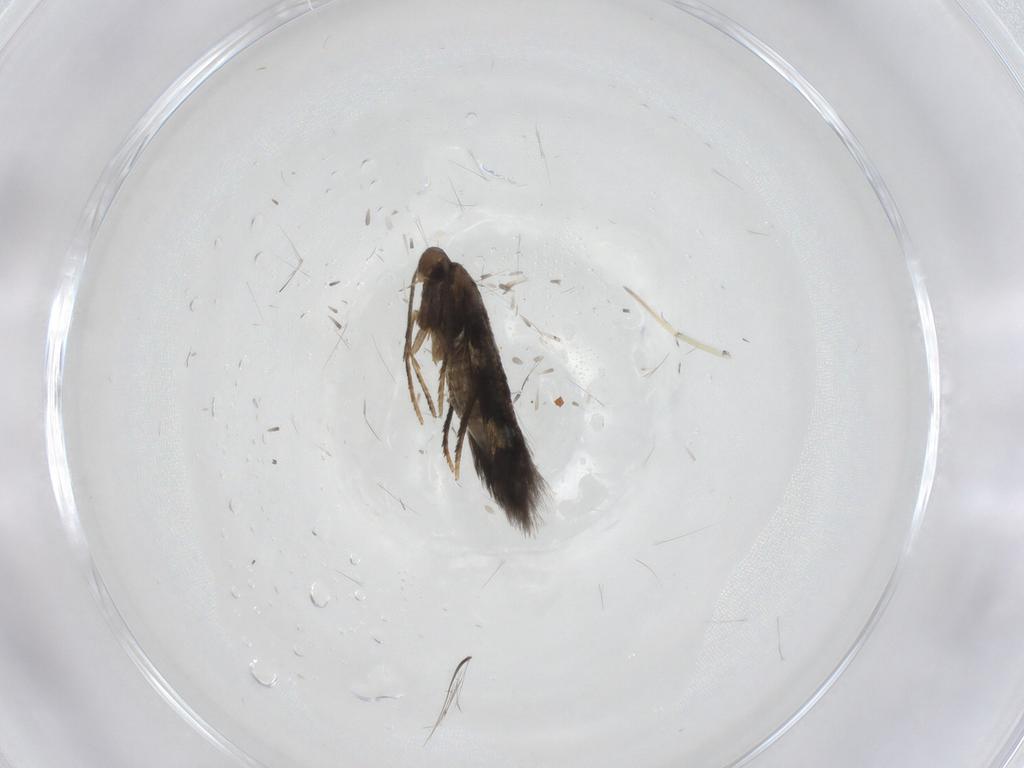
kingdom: Animalia
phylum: Arthropoda
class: Insecta
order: Lepidoptera
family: Heliozelidae
